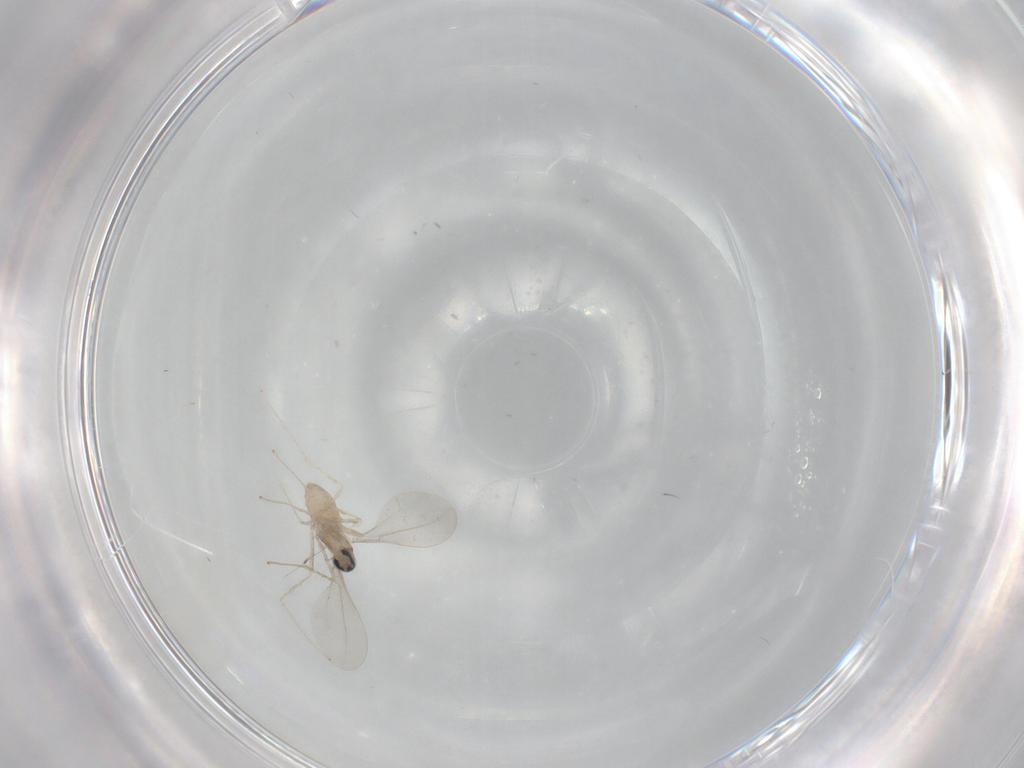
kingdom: Animalia
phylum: Arthropoda
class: Insecta
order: Diptera
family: Cecidomyiidae
